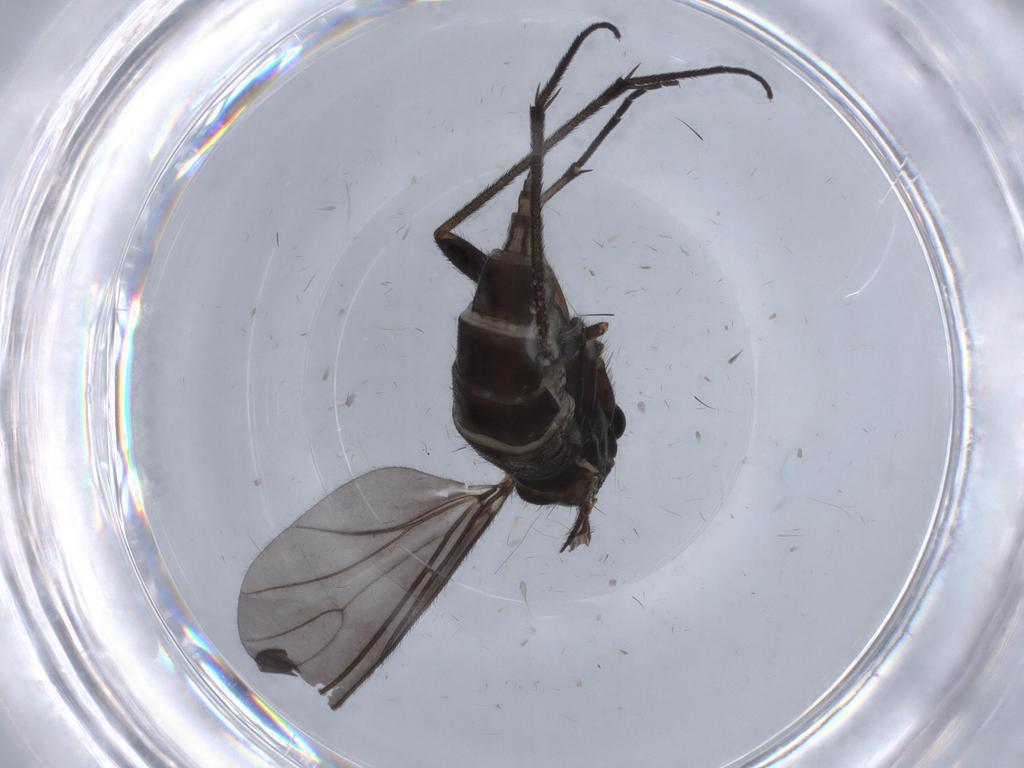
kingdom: Animalia
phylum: Arthropoda
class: Insecta
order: Diptera
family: Sciaridae
